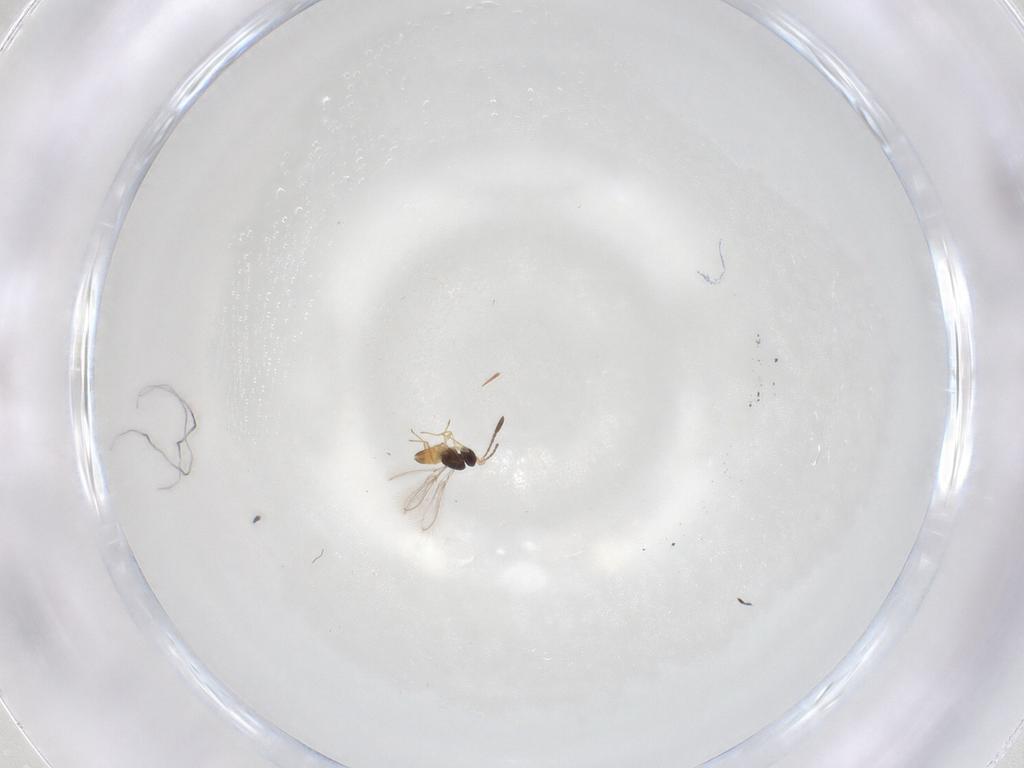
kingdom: Animalia
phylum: Arthropoda
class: Insecta
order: Hymenoptera
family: Mymaridae
